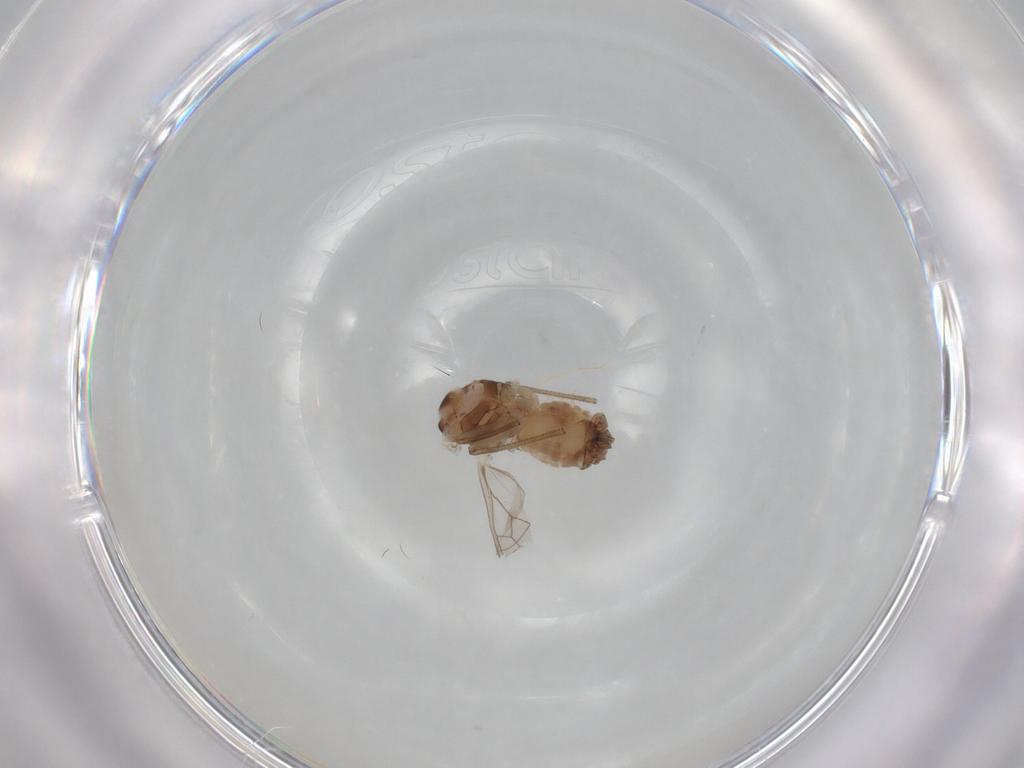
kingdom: Animalia
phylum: Arthropoda
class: Insecta
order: Psocodea
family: Peripsocidae
